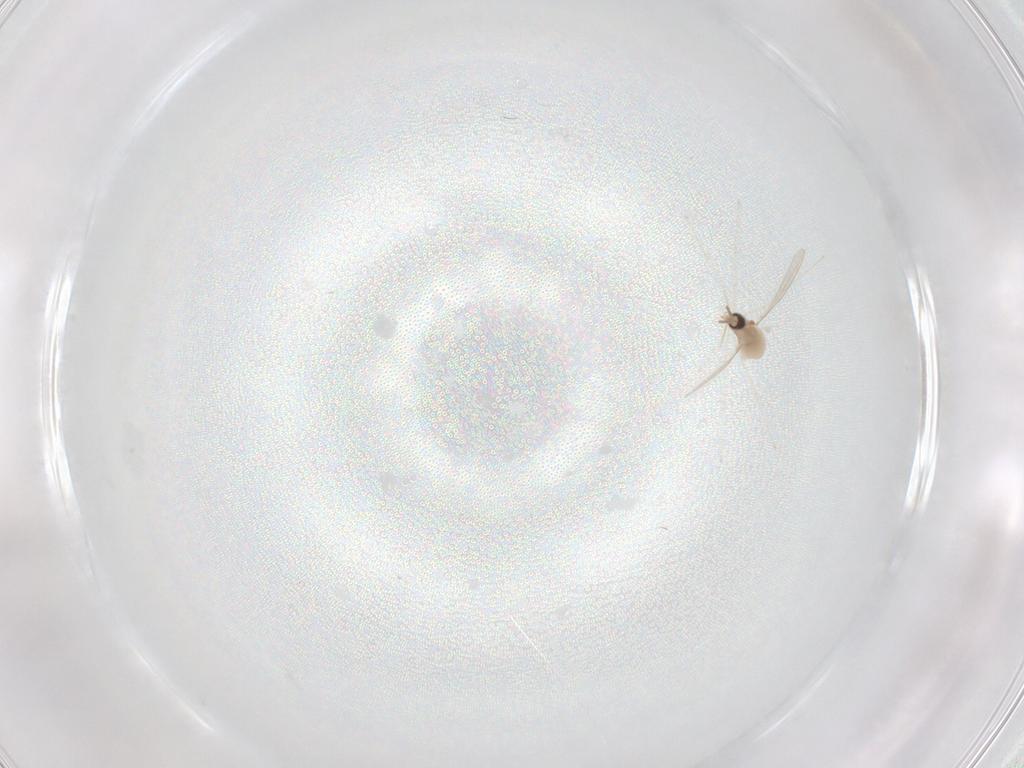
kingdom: Animalia
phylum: Arthropoda
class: Insecta
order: Diptera
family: Cecidomyiidae
